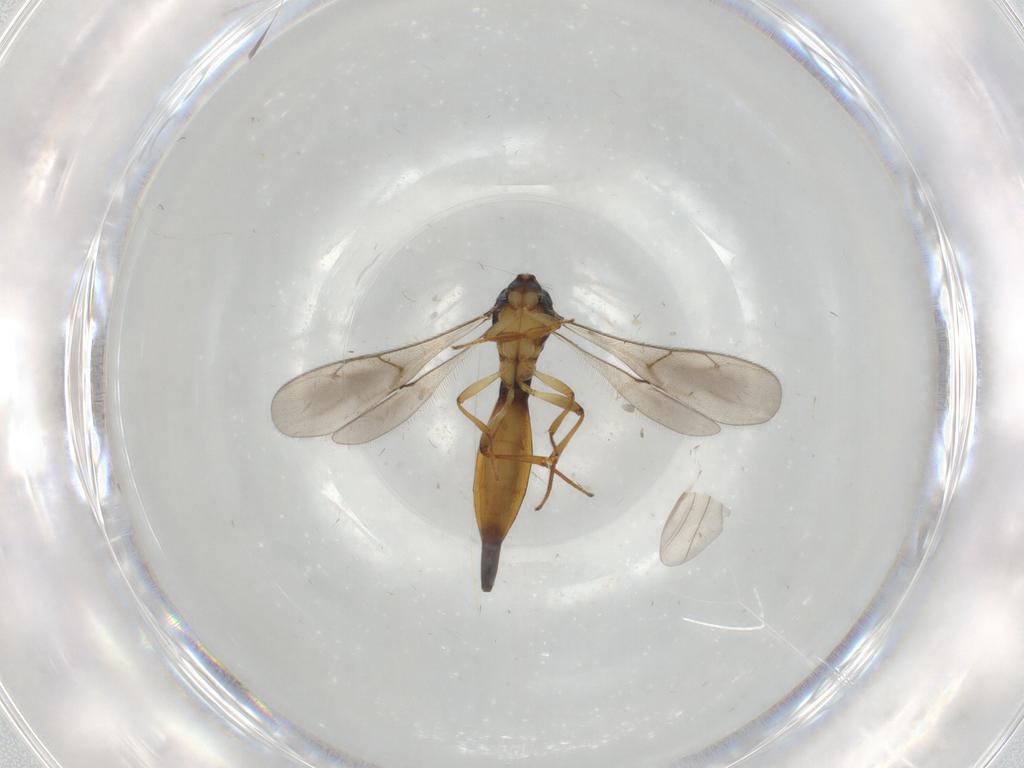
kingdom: Animalia
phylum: Arthropoda
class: Insecta
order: Hymenoptera
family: Scelionidae
